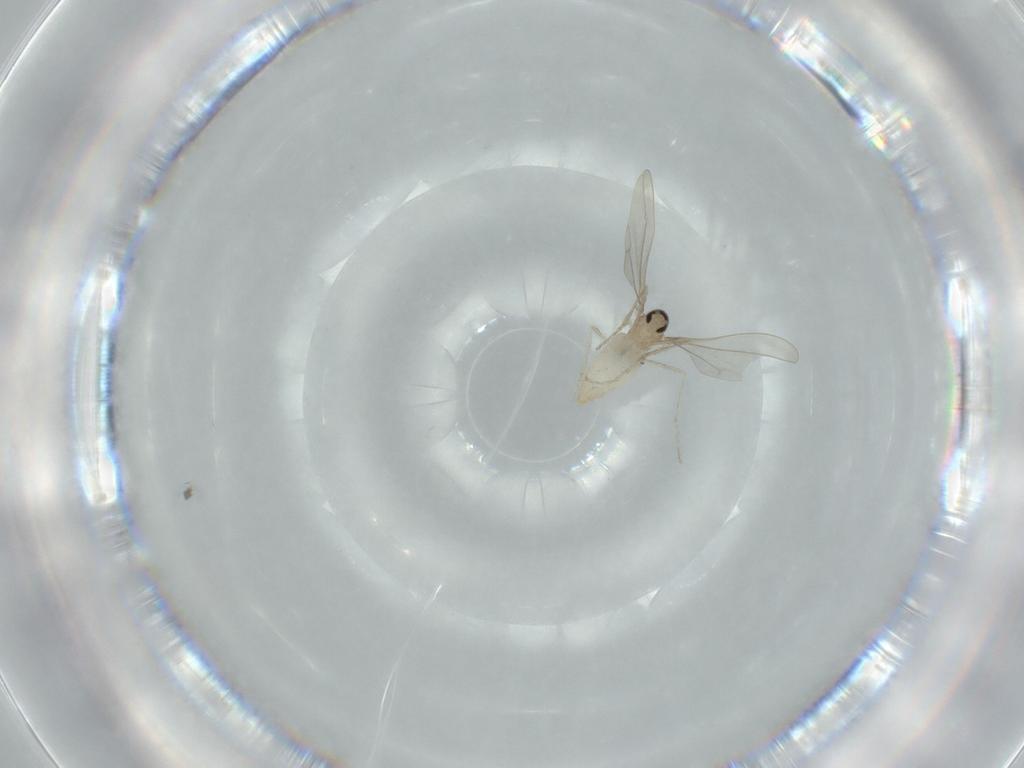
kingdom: Animalia
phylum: Arthropoda
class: Insecta
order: Diptera
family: Cecidomyiidae
